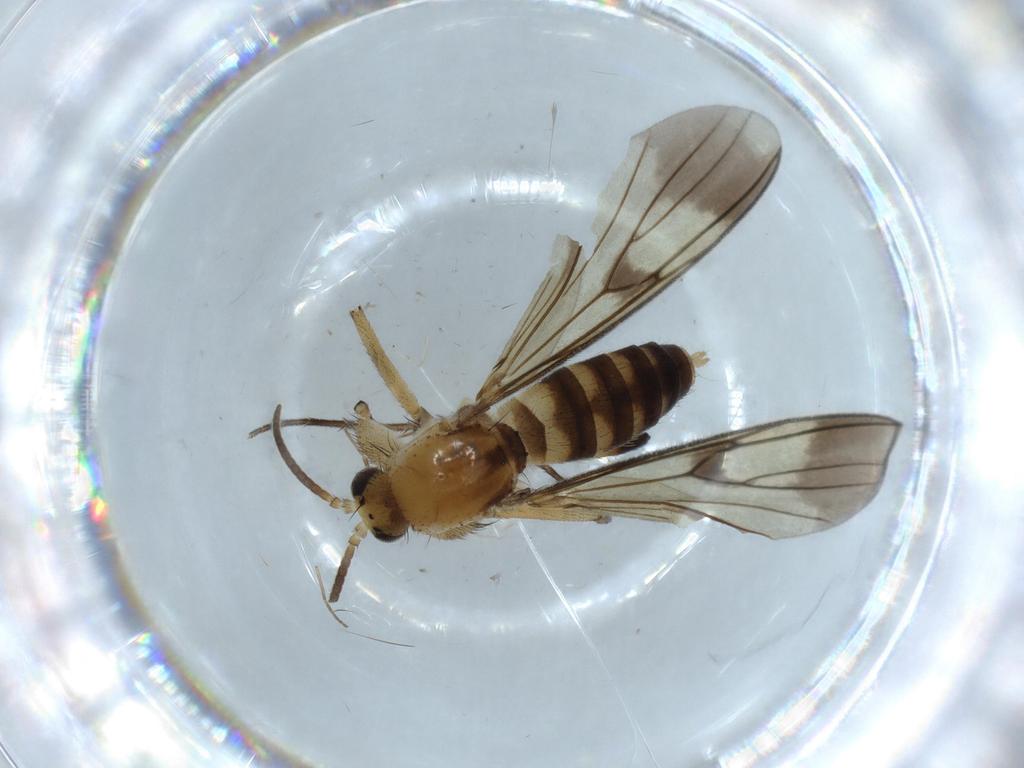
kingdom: Animalia
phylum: Arthropoda
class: Insecta
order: Diptera
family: Mycetophilidae
